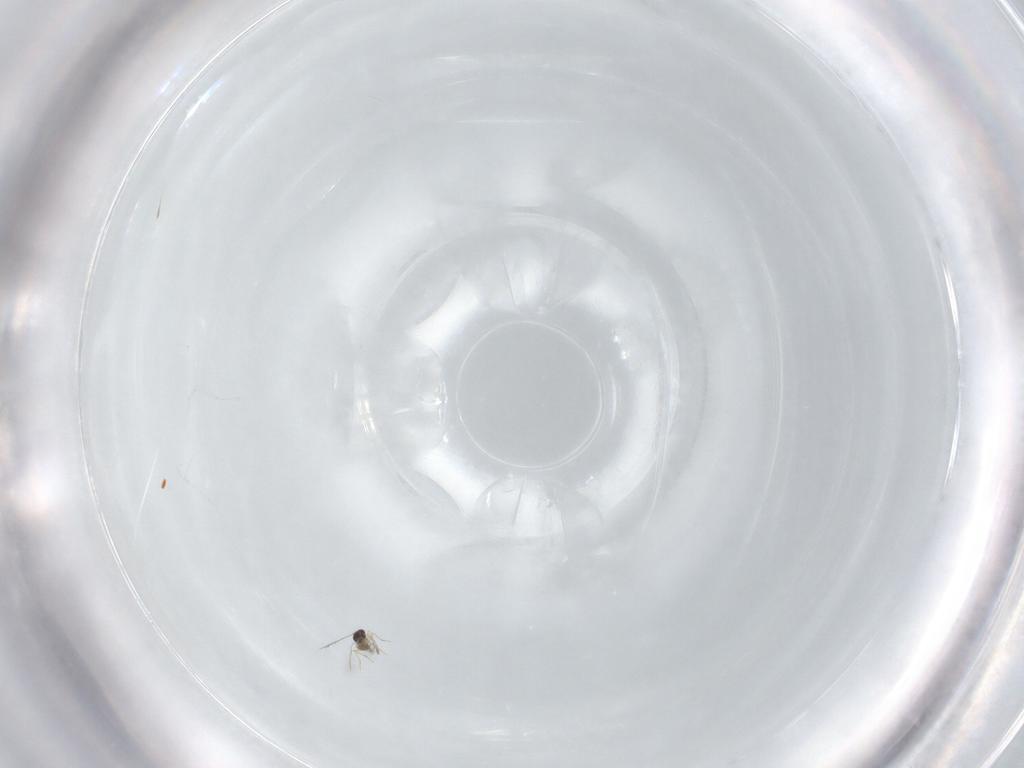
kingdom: Animalia
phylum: Arthropoda
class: Insecta
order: Hymenoptera
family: Mymaridae
